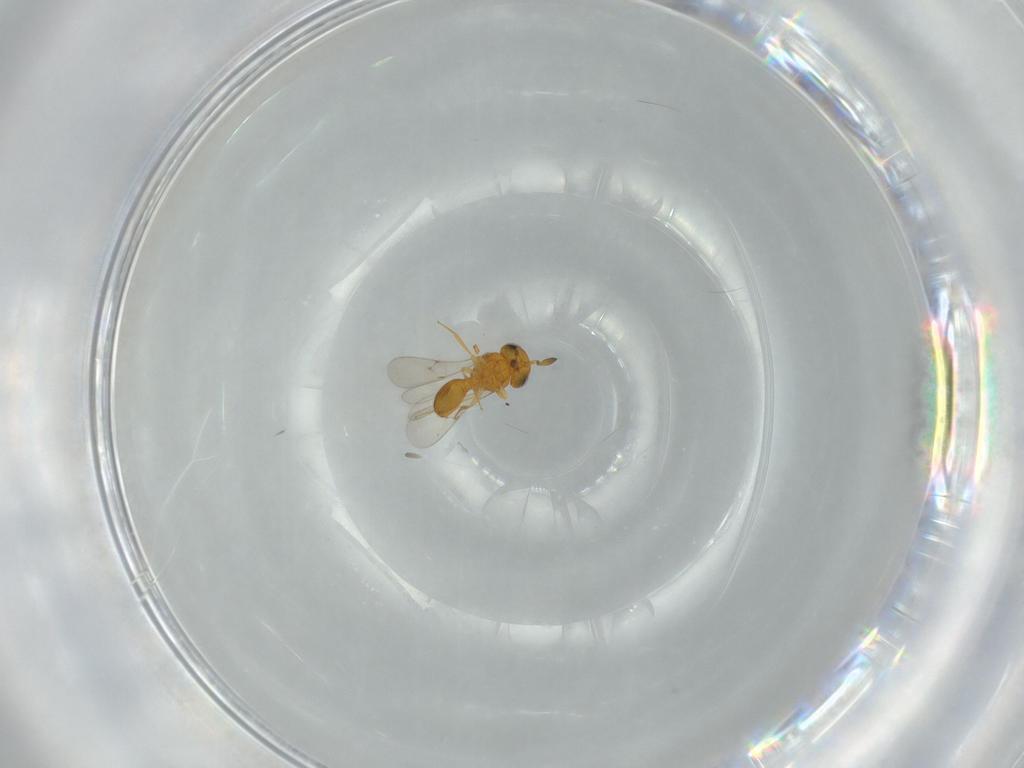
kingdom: Animalia
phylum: Arthropoda
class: Insecta
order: Hymenoptera
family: Scelionidae
